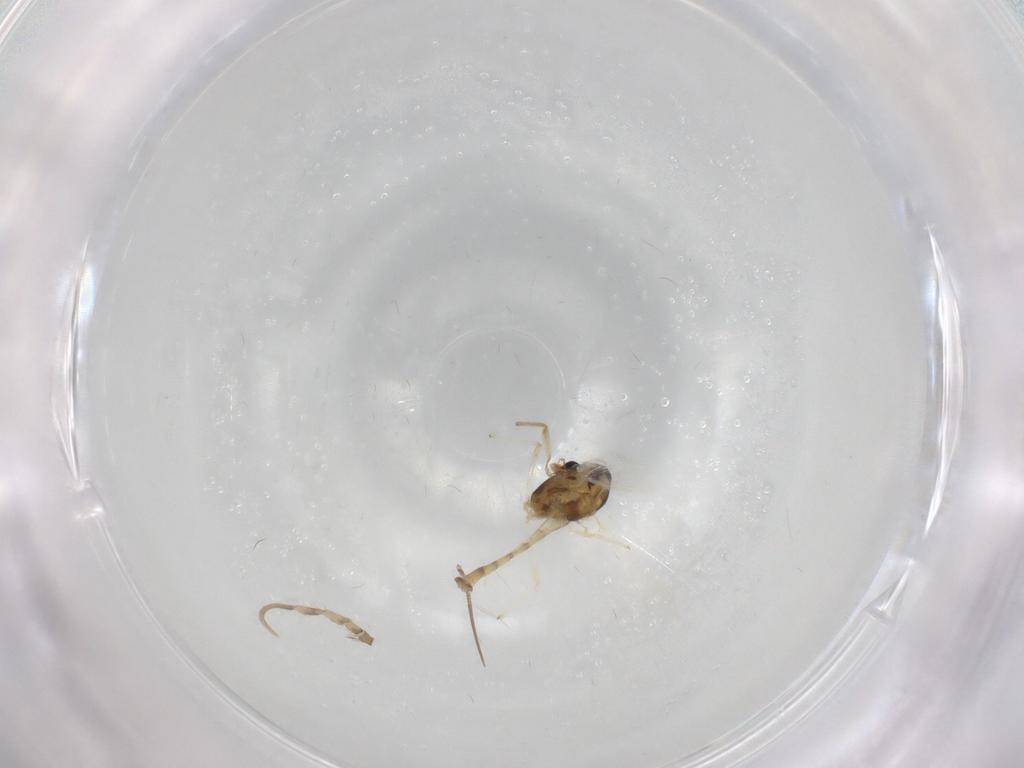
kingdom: Animalia
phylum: Arthropoda
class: Insecta
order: Diptera
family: Chironomidae
